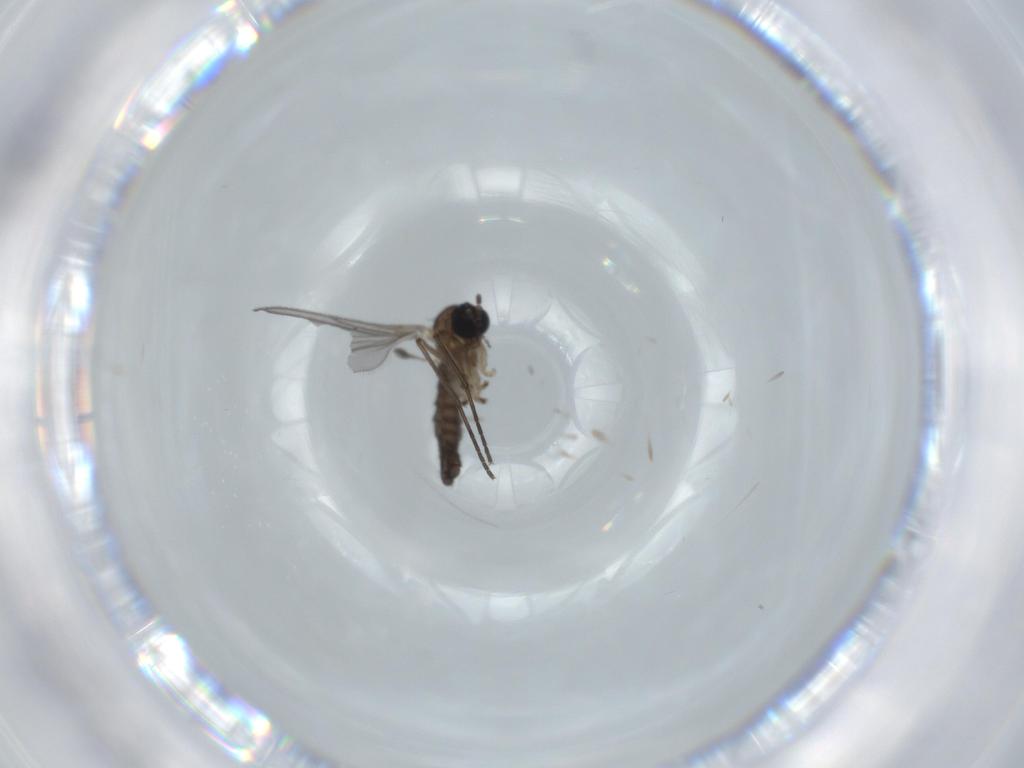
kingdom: Animalia
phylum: Arthropoda
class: Insecta
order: Diptera
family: Sciaridae
